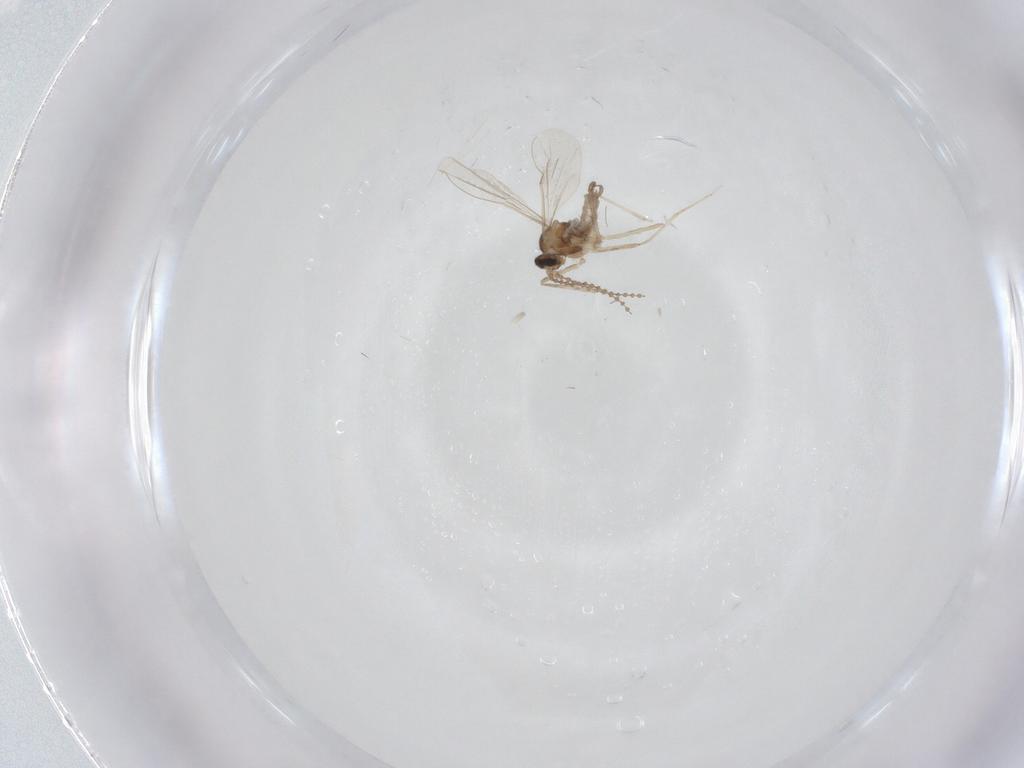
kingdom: Animalia
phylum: Arthropoda
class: Insecta
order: Diptera
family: Cecidomyiidae
